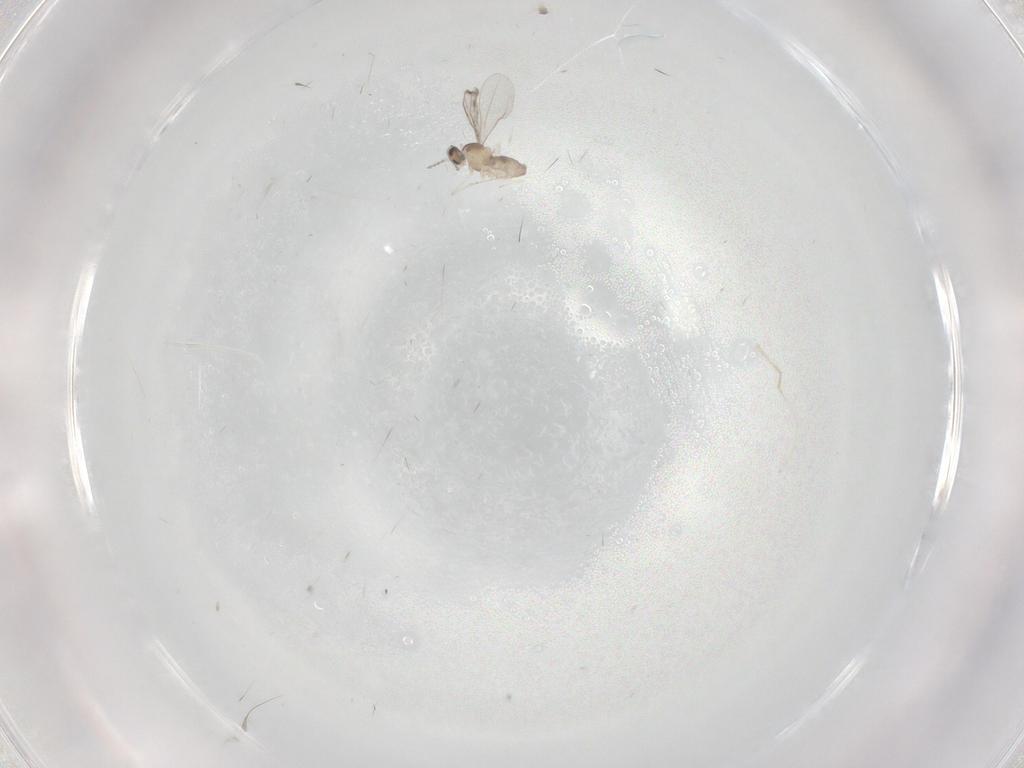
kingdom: Animalia
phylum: Arthropoda
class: Insecta
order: Diptera
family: Cecidomyiidae
